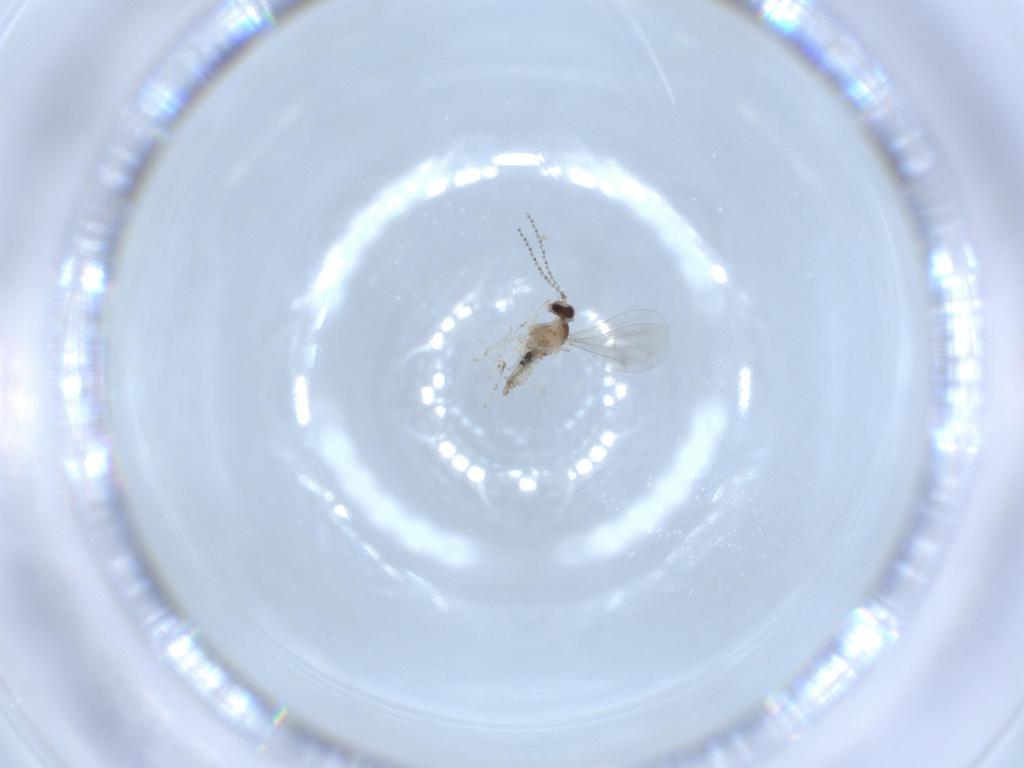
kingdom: Animalia
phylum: Arthropoda
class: Insecta
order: Diptera
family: Cecidomyiidae
